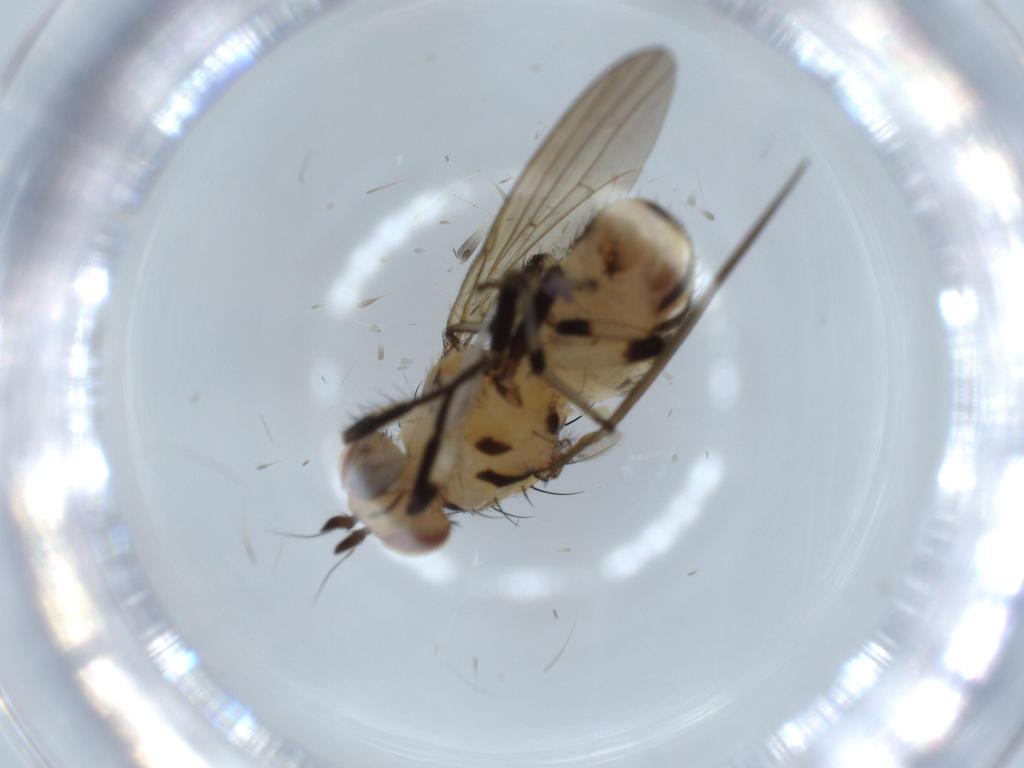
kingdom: Animalia
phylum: Arthropoda
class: Insecta
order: Diptera
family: Lauxaniidae
